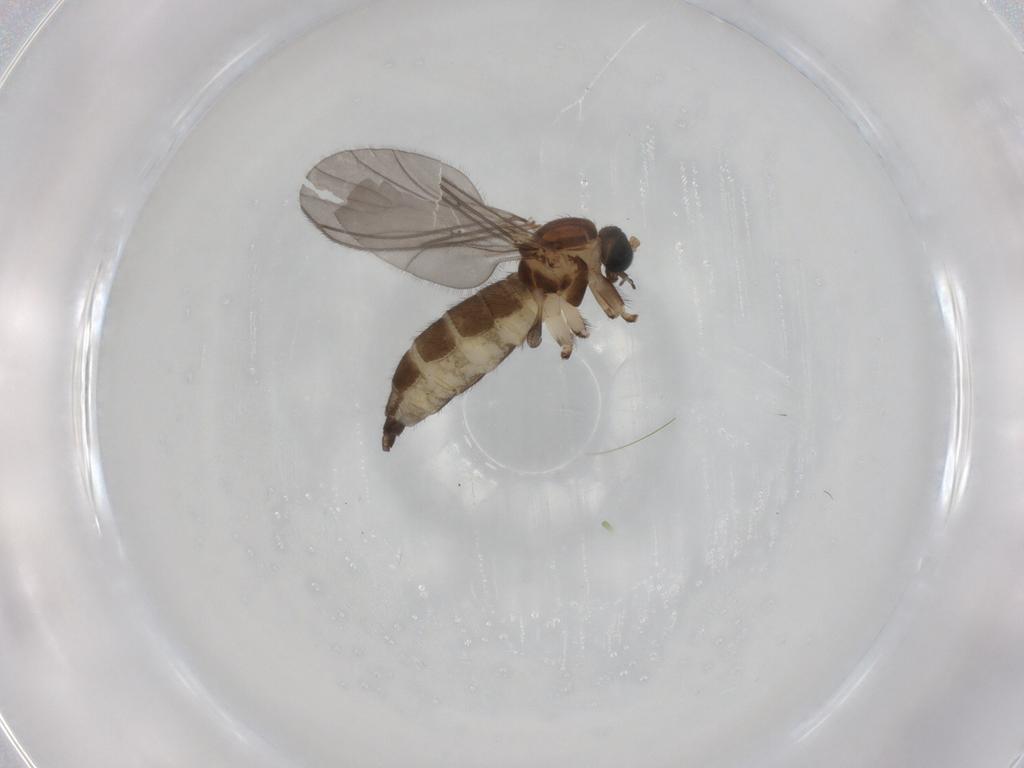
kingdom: Animalia
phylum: Arthropoda
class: Insecta
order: Diptera
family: Sciaridae
